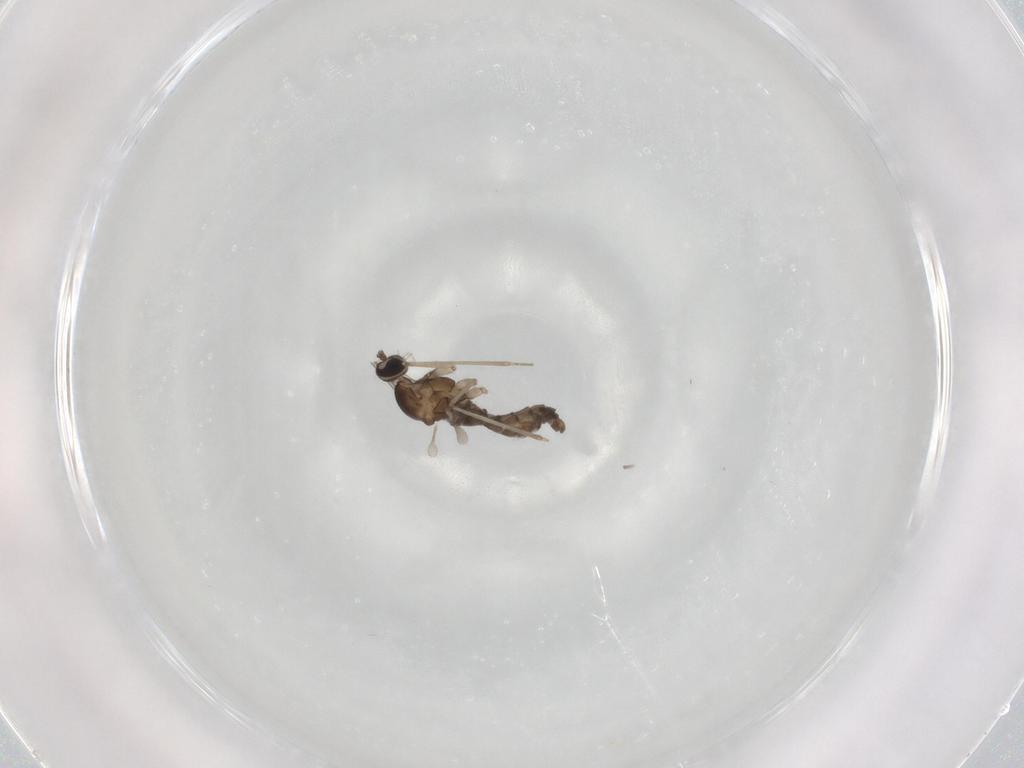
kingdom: Animalia
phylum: Arthropoda
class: Insecta
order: Diptera
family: Cecidomyiidae
